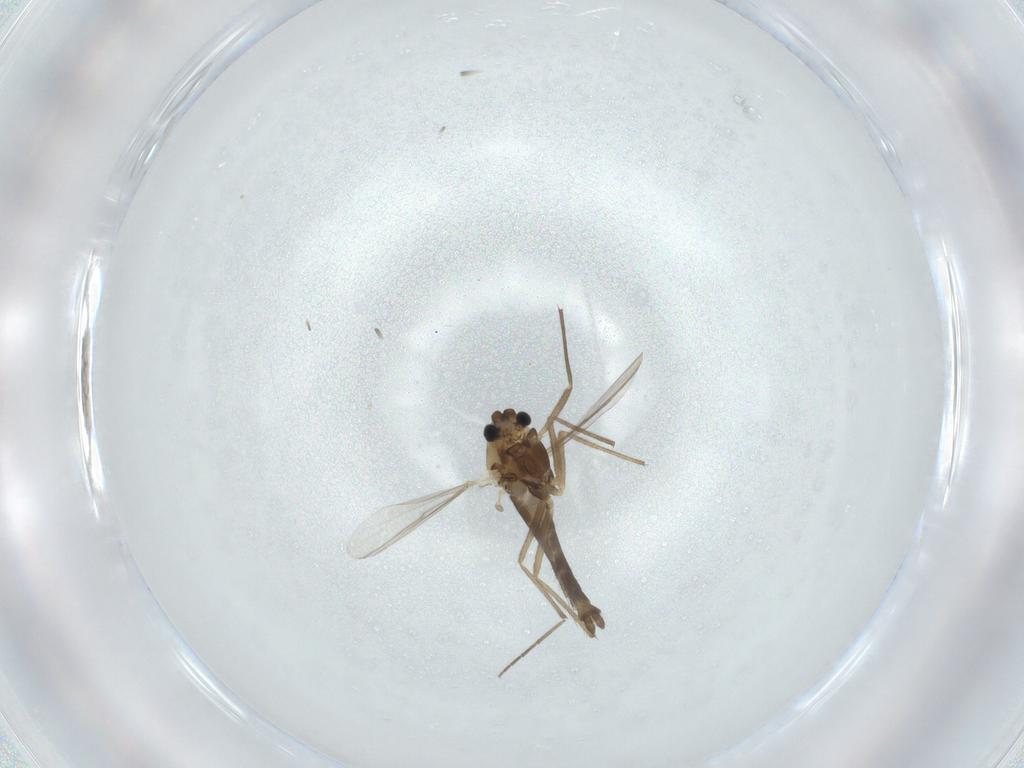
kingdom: Animalia
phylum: Arthropoda
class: Insecta
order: Diptera
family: Chironomidae
